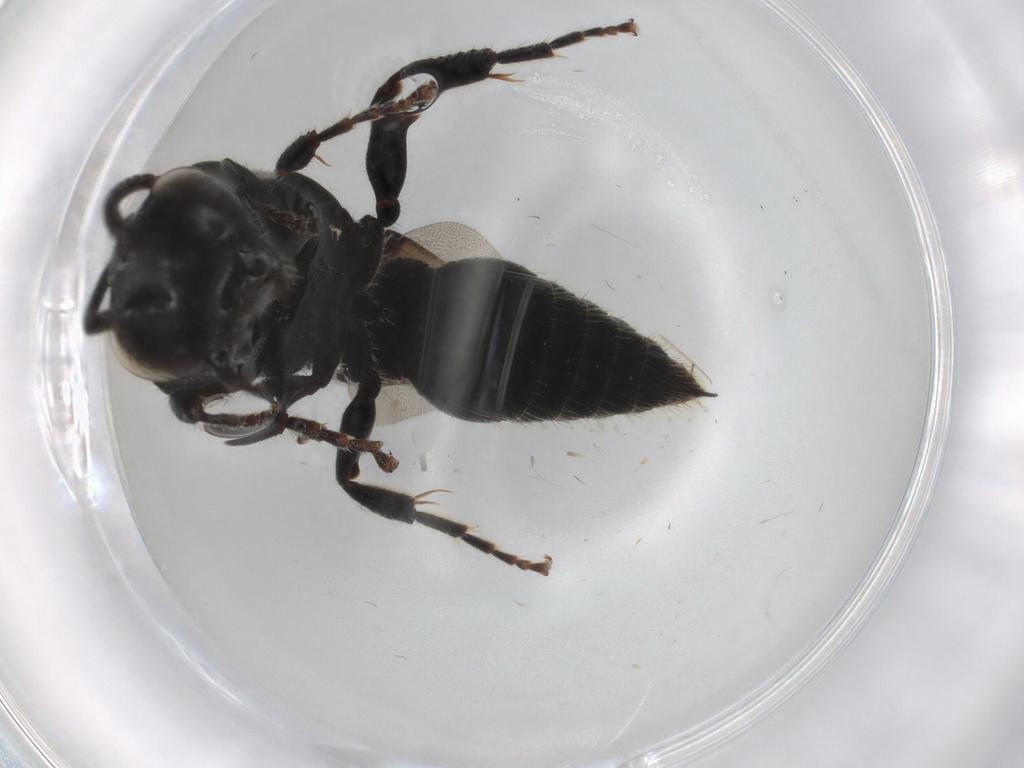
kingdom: Animalia
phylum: Arthropoda
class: Insecta
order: Hymenoptera
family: Tiphiidae
